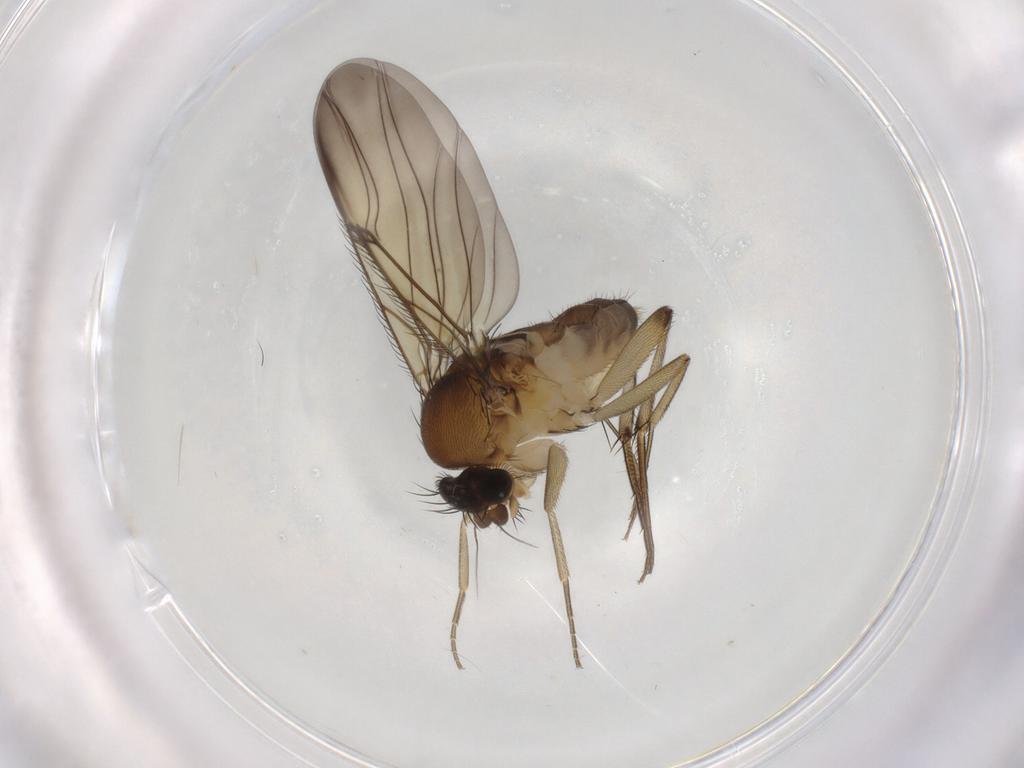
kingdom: Animalia
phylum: Arthropoda
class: Insecta
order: Diptera
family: Phoridae
